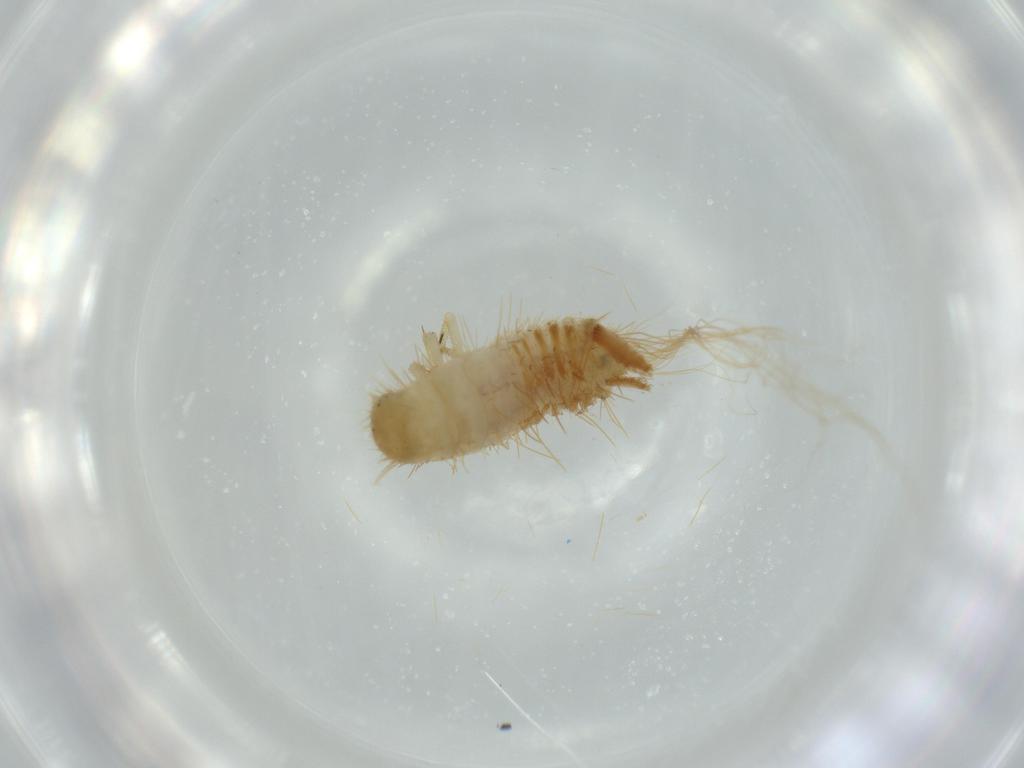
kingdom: Animalia
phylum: Arthropoda
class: Insecta
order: Coleoptera
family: Dermestidae
